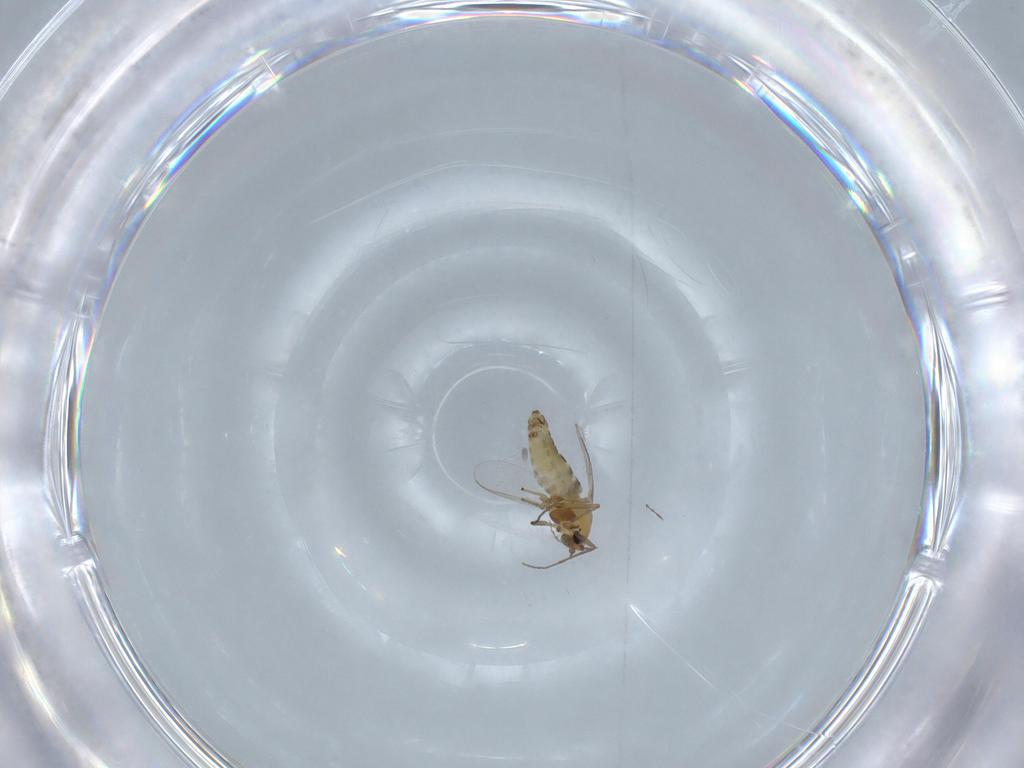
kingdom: Animalia
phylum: Arthropoda
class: Insecta
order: Diptera
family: Chironomidae
